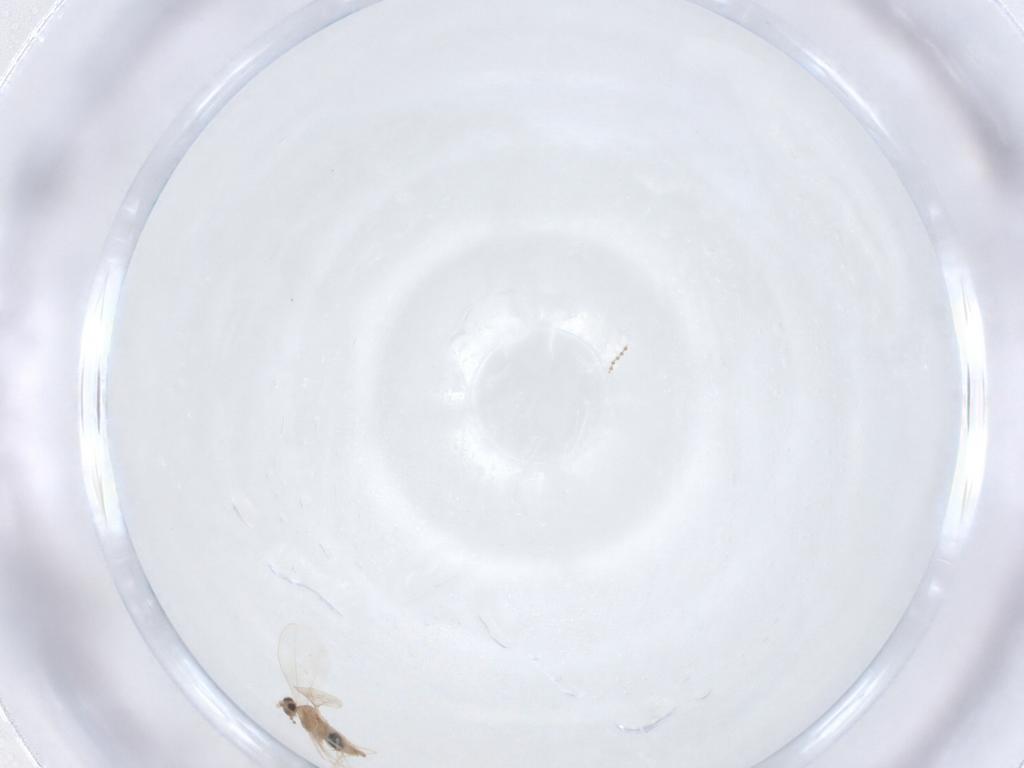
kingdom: Animalia
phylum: Arthropoda
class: Insecta
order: Diptera
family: Cecidomyiidae
